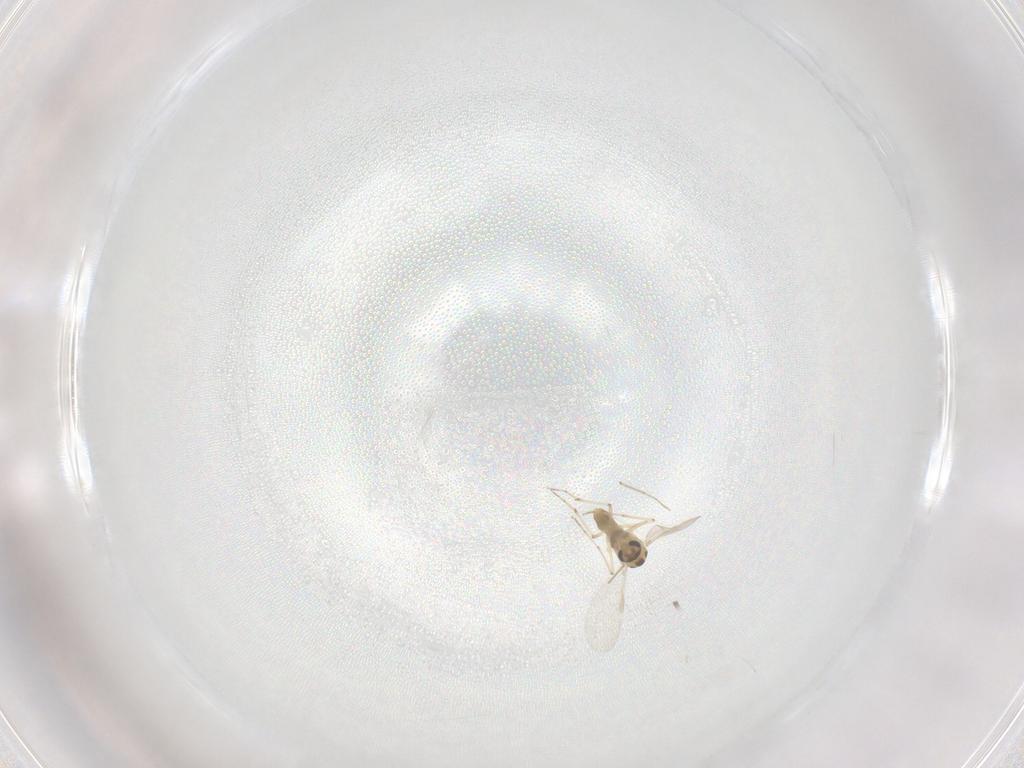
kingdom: Animalia
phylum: Arthropoda
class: Insecta
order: Diptera
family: Chironomidae
